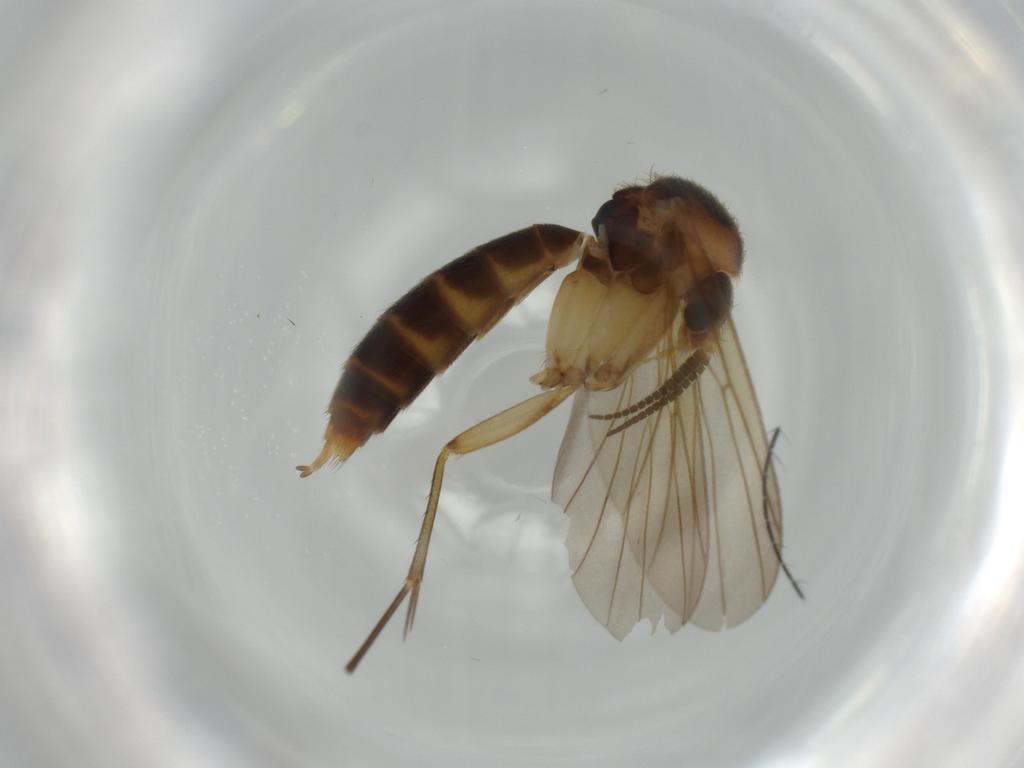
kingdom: Animalia
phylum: Arthropoda
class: Insecta
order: Diptera
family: Mycetophilidae
